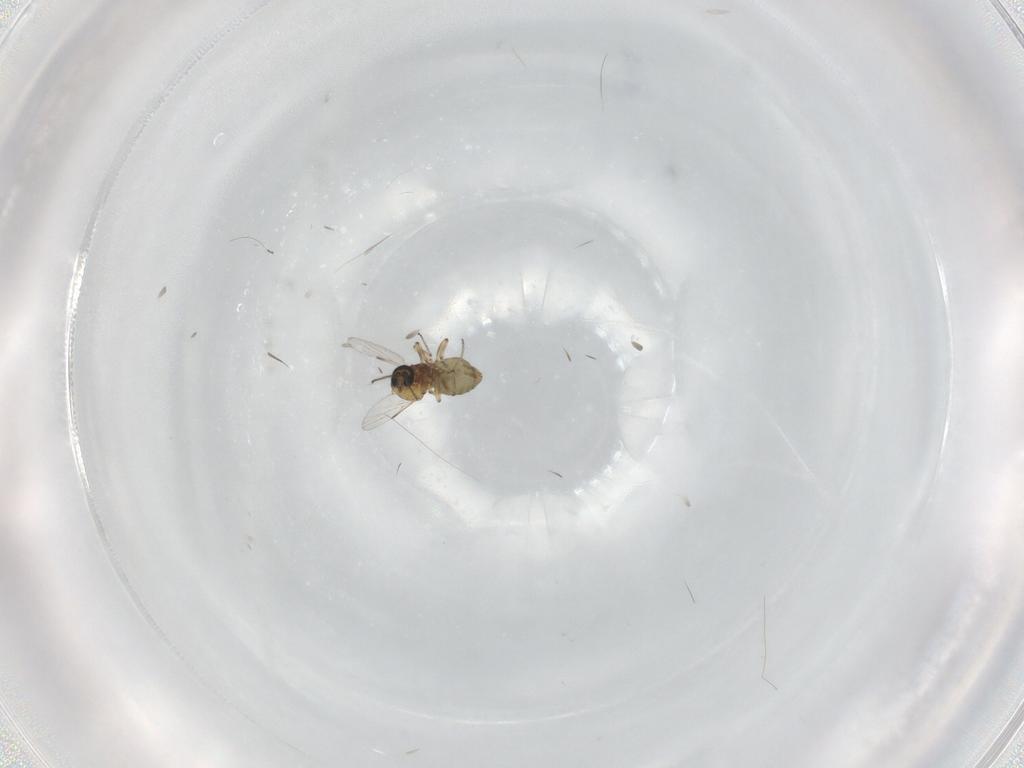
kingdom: Animalia
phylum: Arthropoda
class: Insecta
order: Diptera
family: Ceratopogonidae
